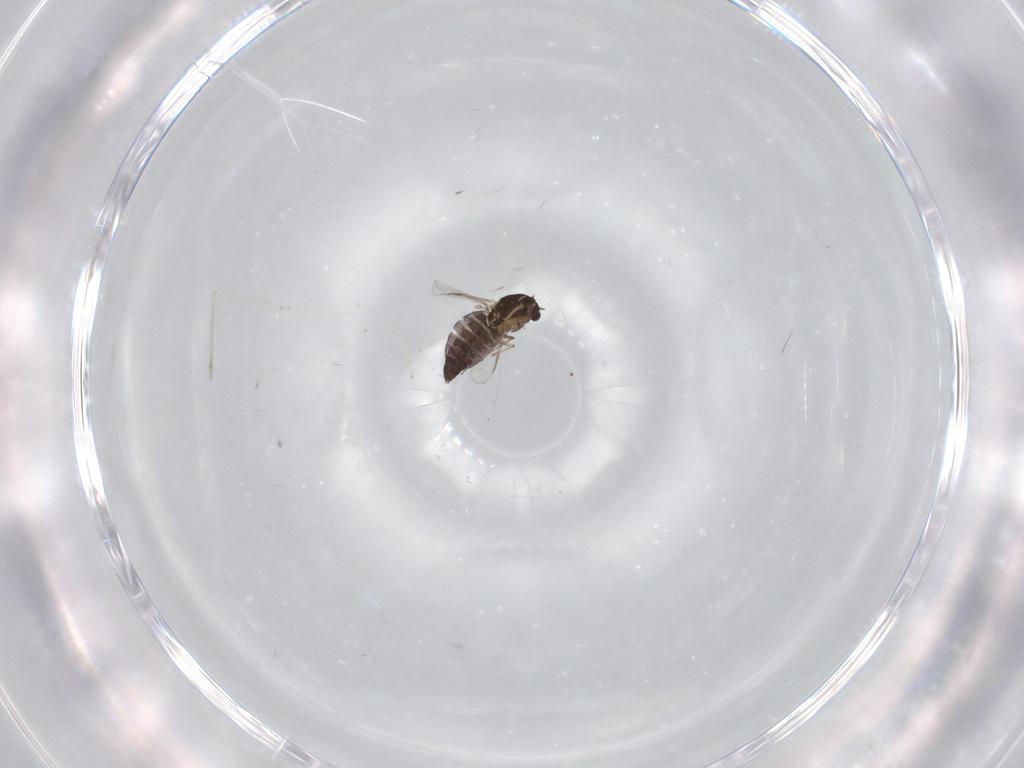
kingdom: Animalia
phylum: Arthropoda
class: Insecta
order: Diptera
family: Chironomidae
